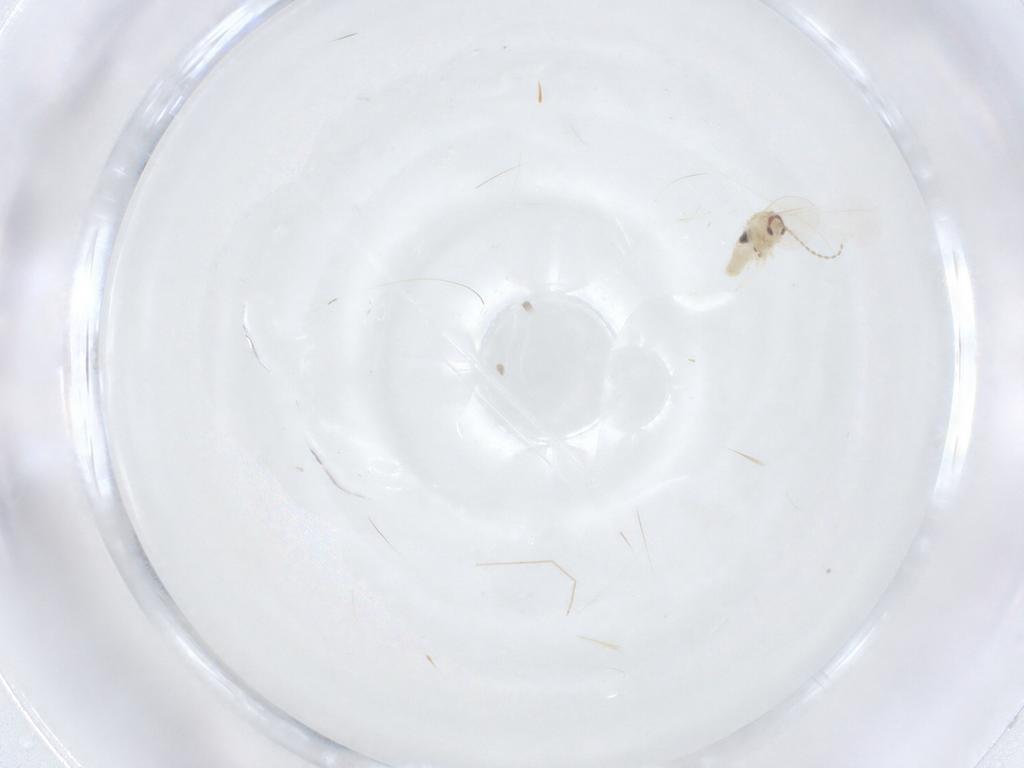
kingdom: Animalia
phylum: Arthropoda
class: Insecta
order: Diptera
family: Cecidomyiidae
